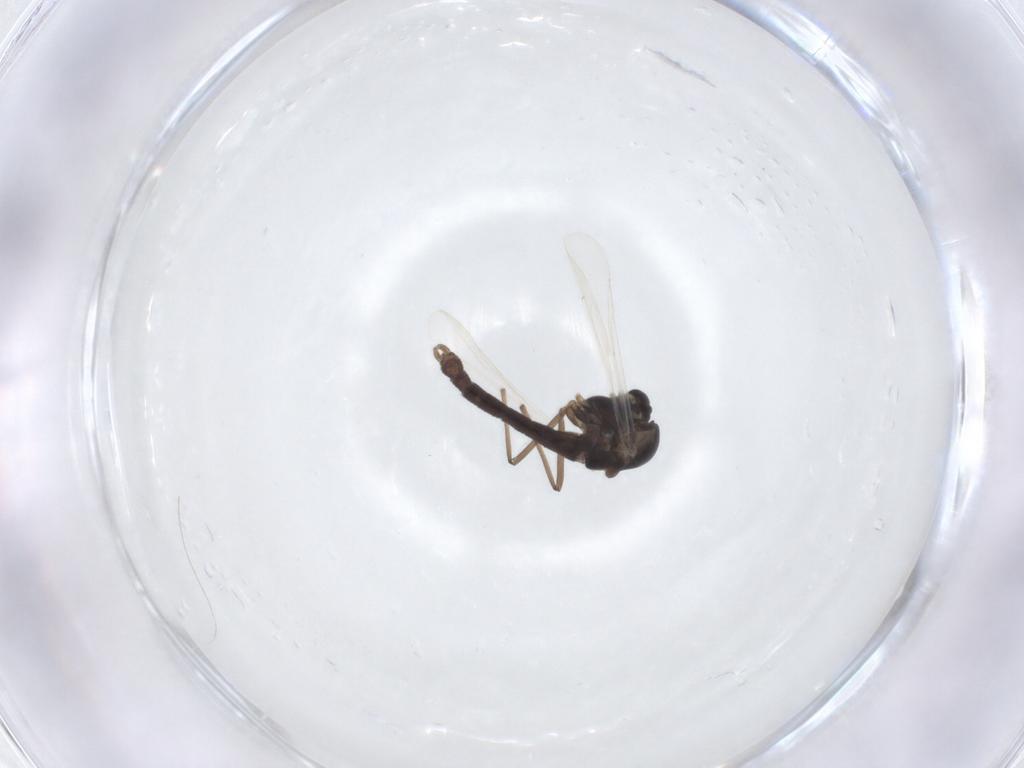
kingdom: Animalia
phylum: Arthropoda
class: Insecta
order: Diptera
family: Chironomidae
